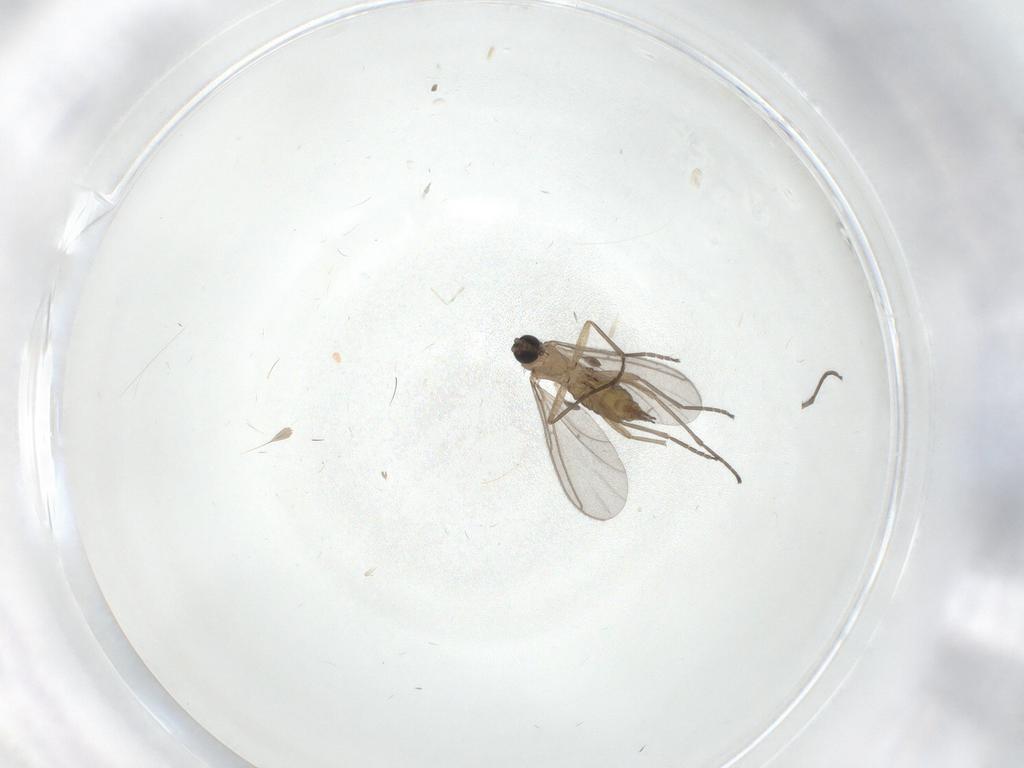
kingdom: Animalia
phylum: Arthropoda
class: Insecta
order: Diptera
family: Sciaridae
